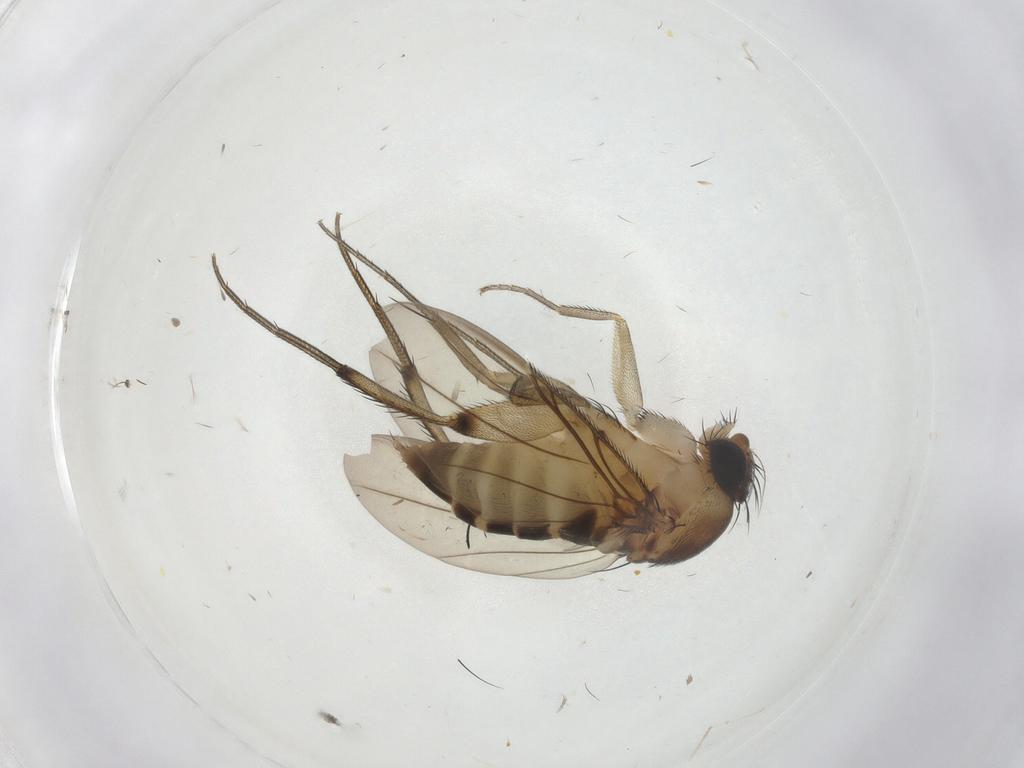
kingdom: Animalia
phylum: Arthropoda
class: Insecta
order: Diptera
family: Phoridae
